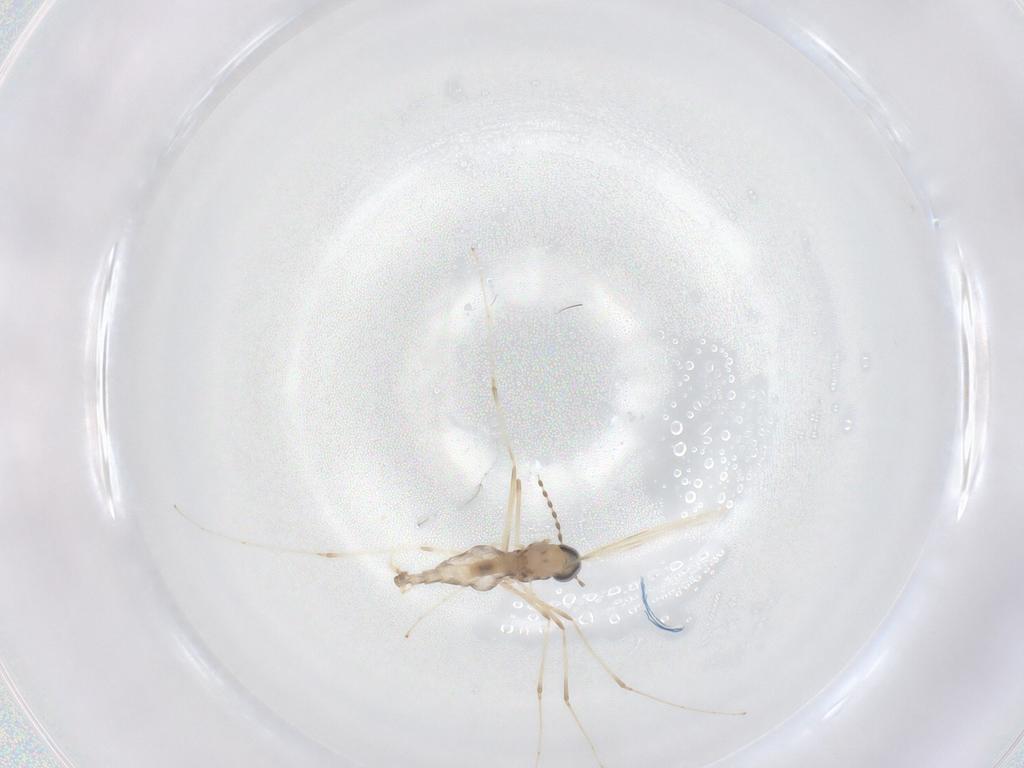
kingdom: Animalia
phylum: Arthropoda
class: Insecta
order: Diptera
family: Cecidomyiidae
